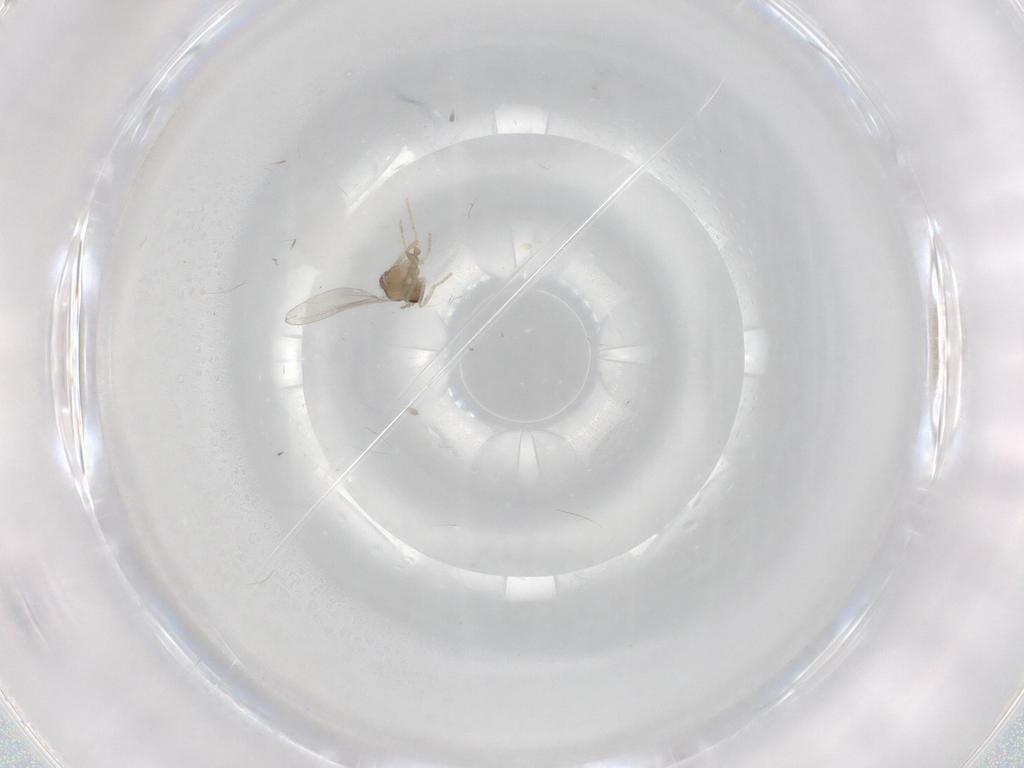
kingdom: Animalia
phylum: Arthropoda
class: Insecta
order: Diptera
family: Cecidomyiidae
